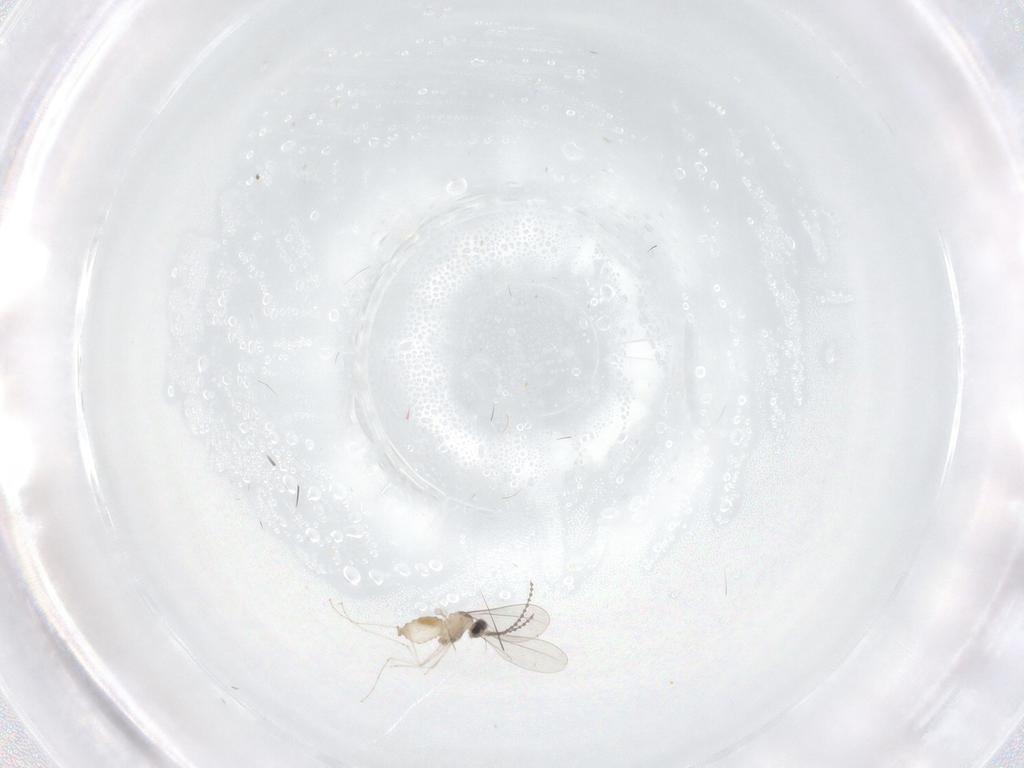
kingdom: Animalia
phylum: Arthropoda
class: Insecta
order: Diptera
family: Cecidomyiidae
